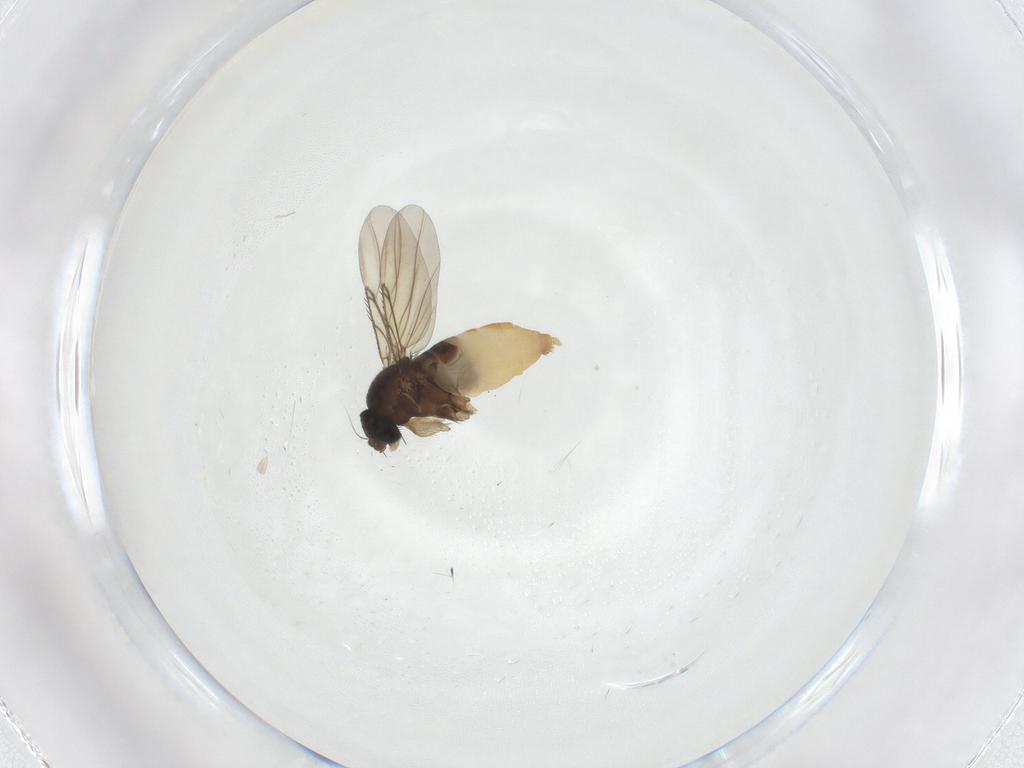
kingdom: Animalia
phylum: Arthropoda
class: Insecta
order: Diptera
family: Phoridae
